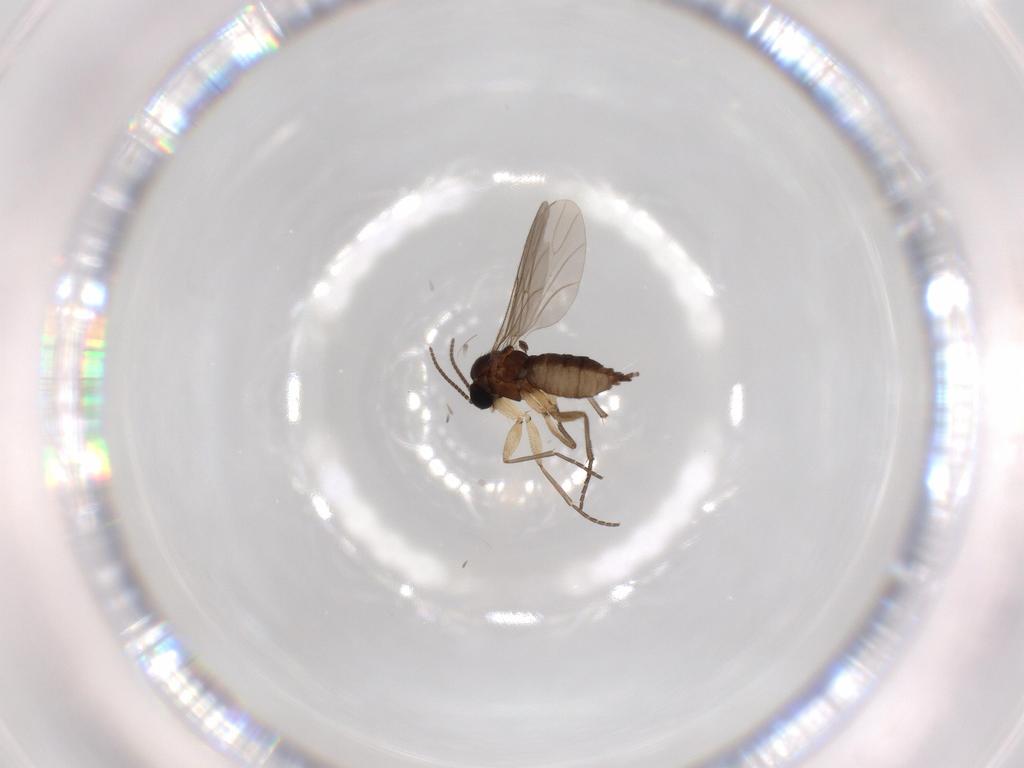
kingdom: Animalia
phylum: Arthropoda
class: Insecta
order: Diptera
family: Sciaridae
